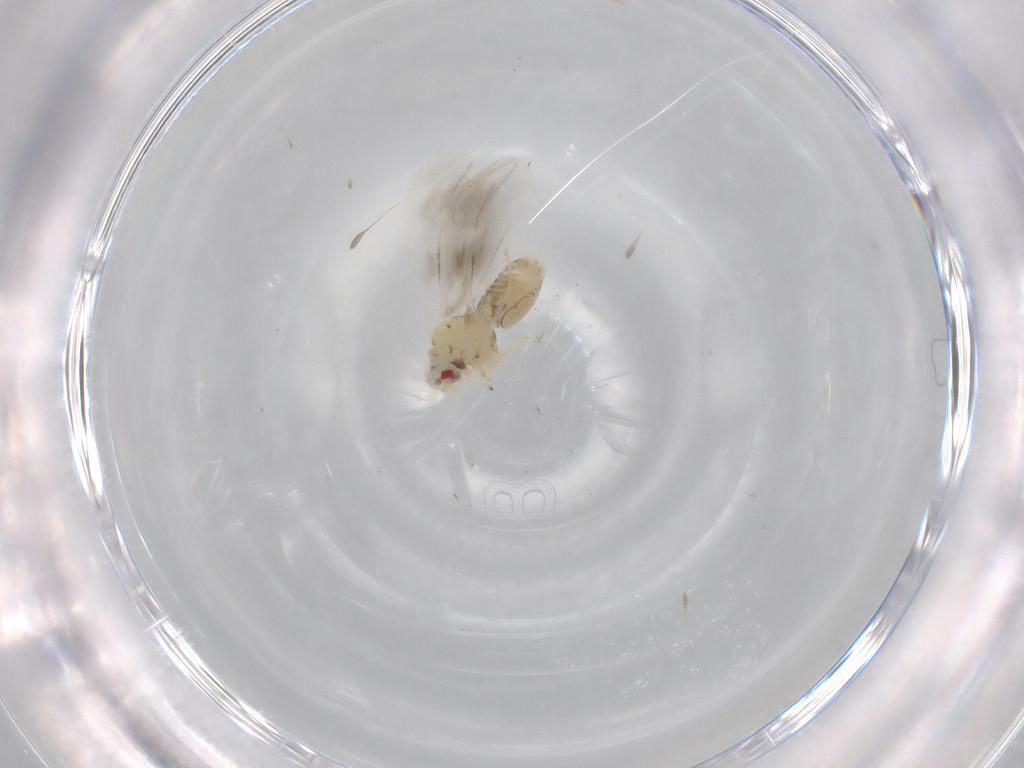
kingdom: Animalia
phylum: Arthropoda
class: Insecta
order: Hemiptera
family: Aleyrodidae
